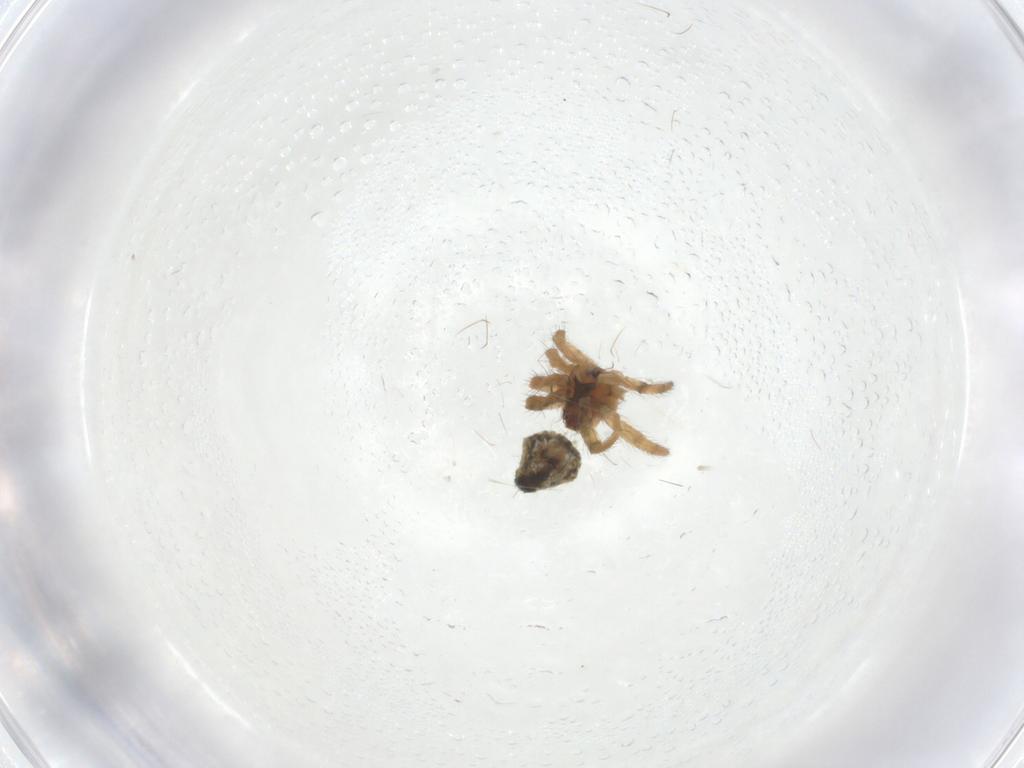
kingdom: Animalia
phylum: Arthropoda
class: Arachnida
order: Araneae
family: Araneidae
